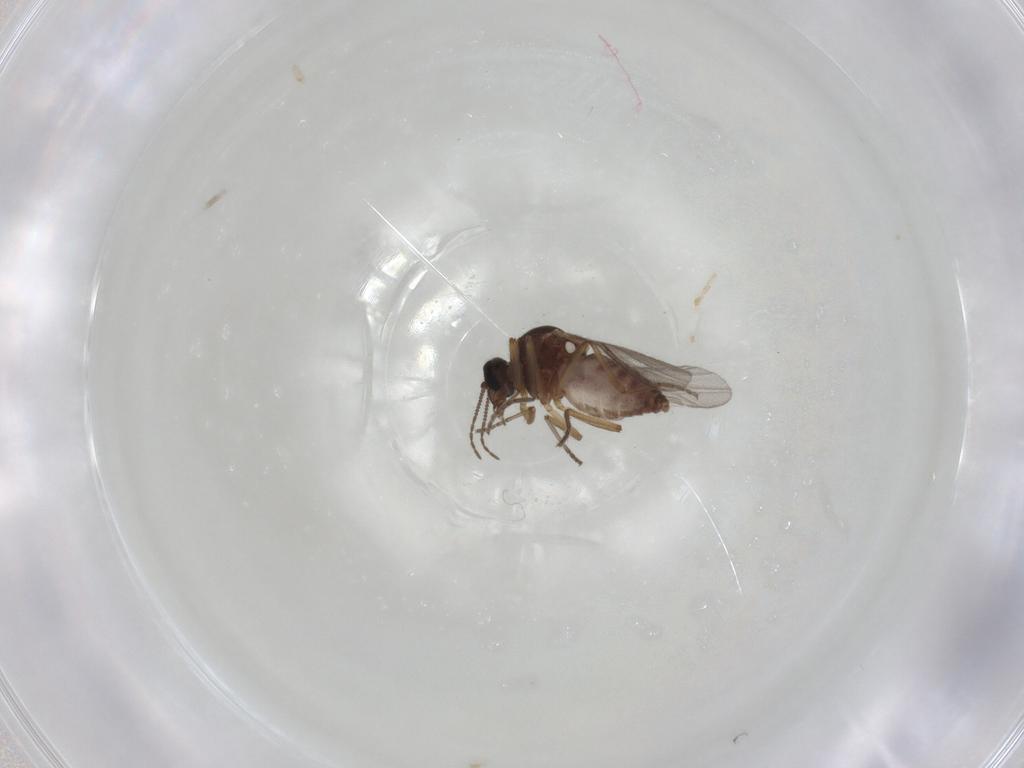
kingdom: Animalia
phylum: Arthropoda
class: Insecta
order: Diptera
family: Ceratopogonidae
